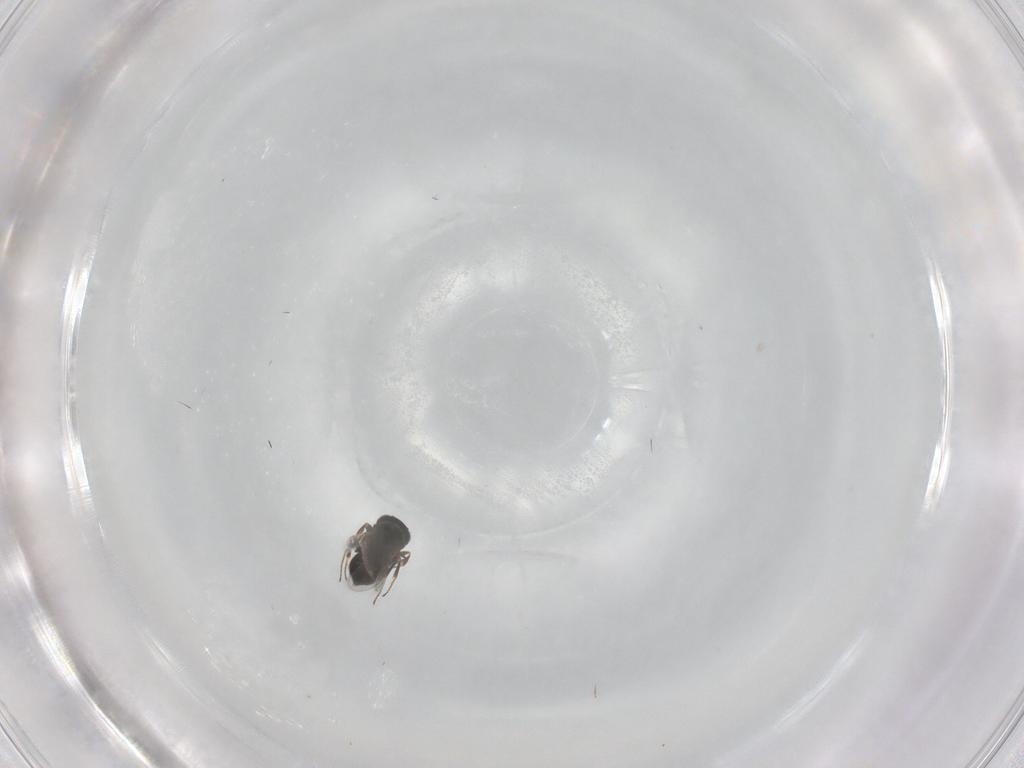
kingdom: Animalia
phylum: Arthropoda
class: Insecta
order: Hymenoptera
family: Scelionidae
